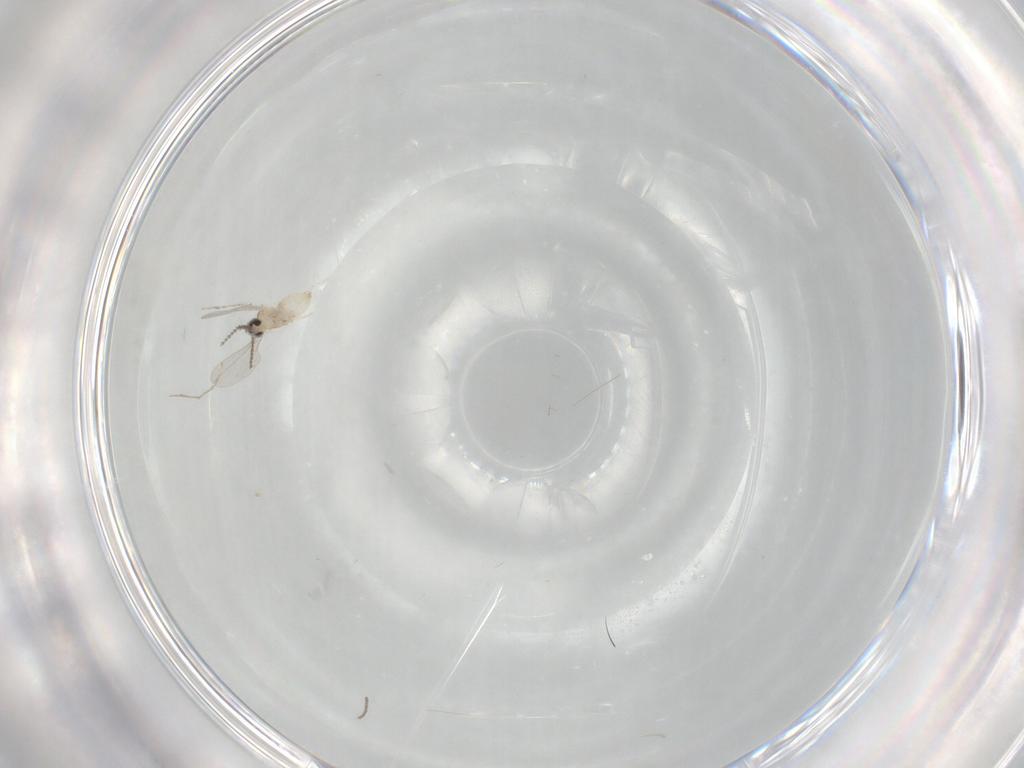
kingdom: Animalia
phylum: Arthropoda
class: Insecta
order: Diptera
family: Cecidomyiidae
